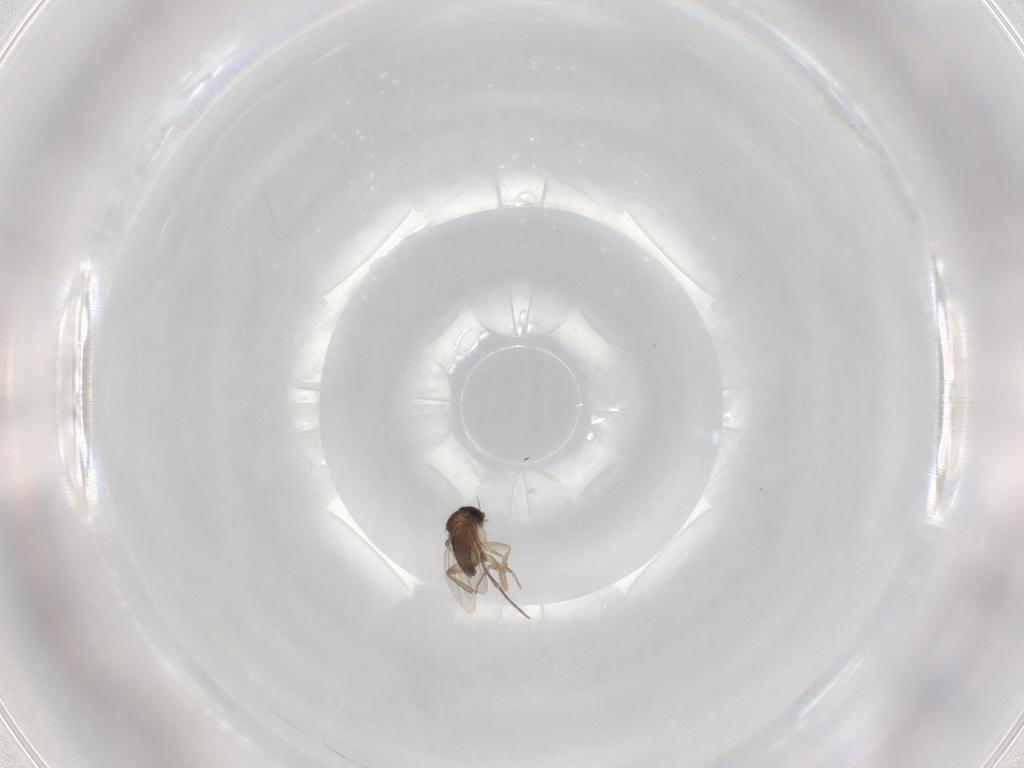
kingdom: Animalia
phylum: Arthropoda
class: Insecta
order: Diptera
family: Phoridae
